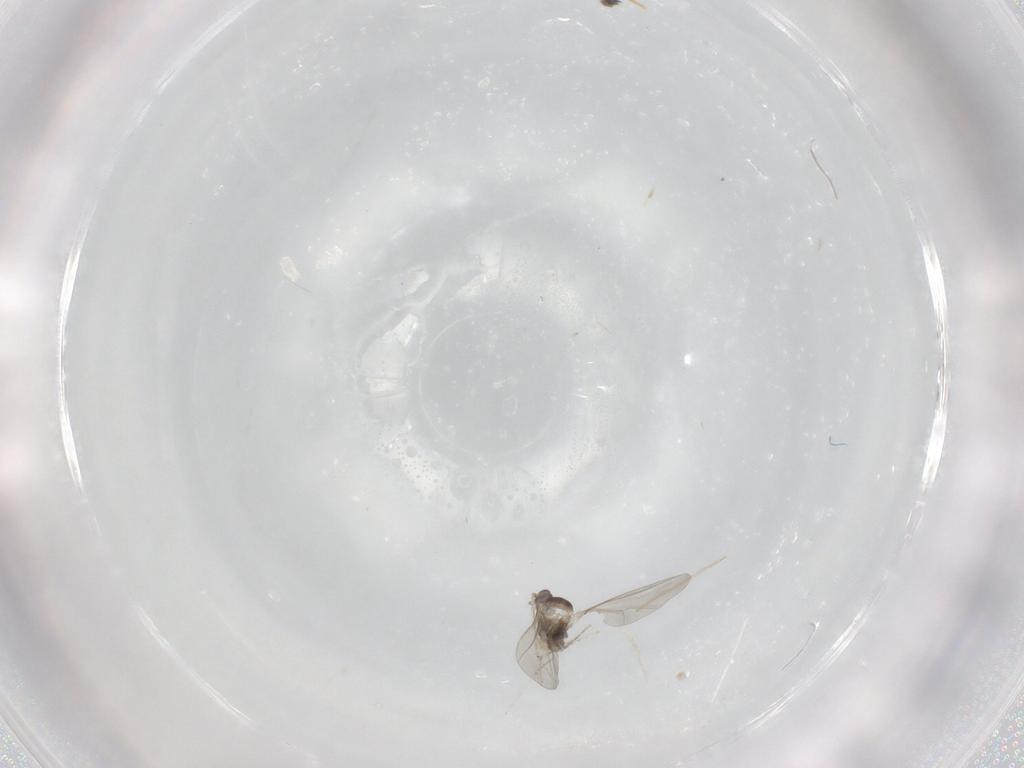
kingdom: Animalia
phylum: Arthropoda
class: Insecta
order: Diptera
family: Cecidomyiidae
